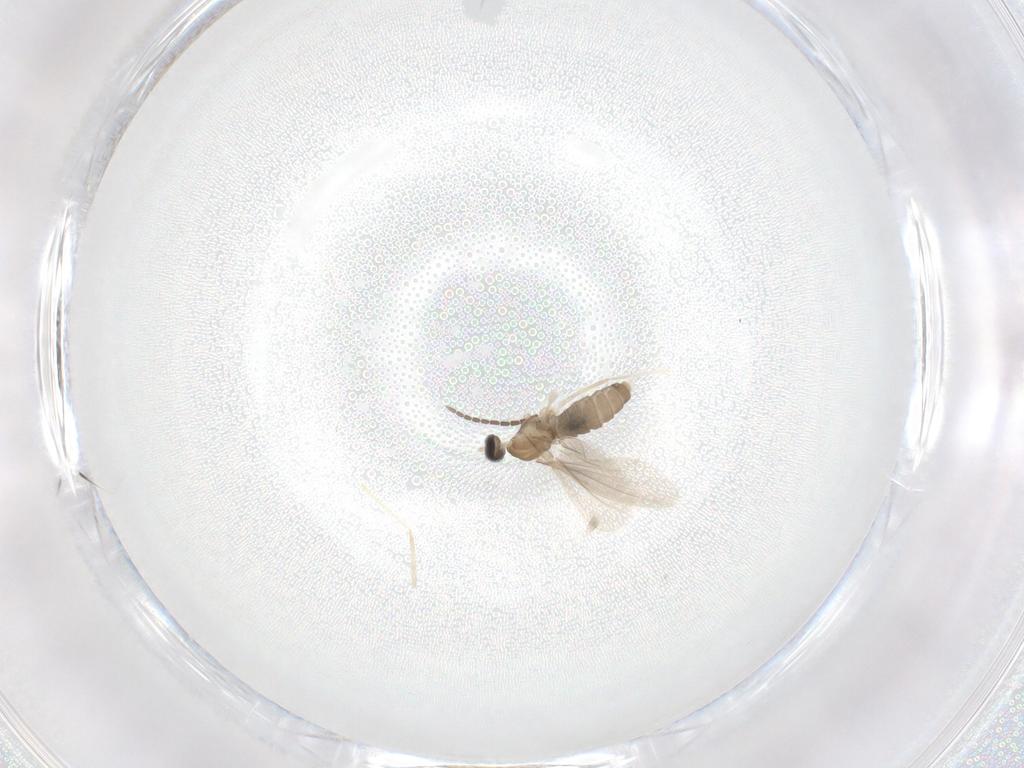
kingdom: Animalia
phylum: Arthropoda
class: Insecta
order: Diptera
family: Cecidomyiidae
